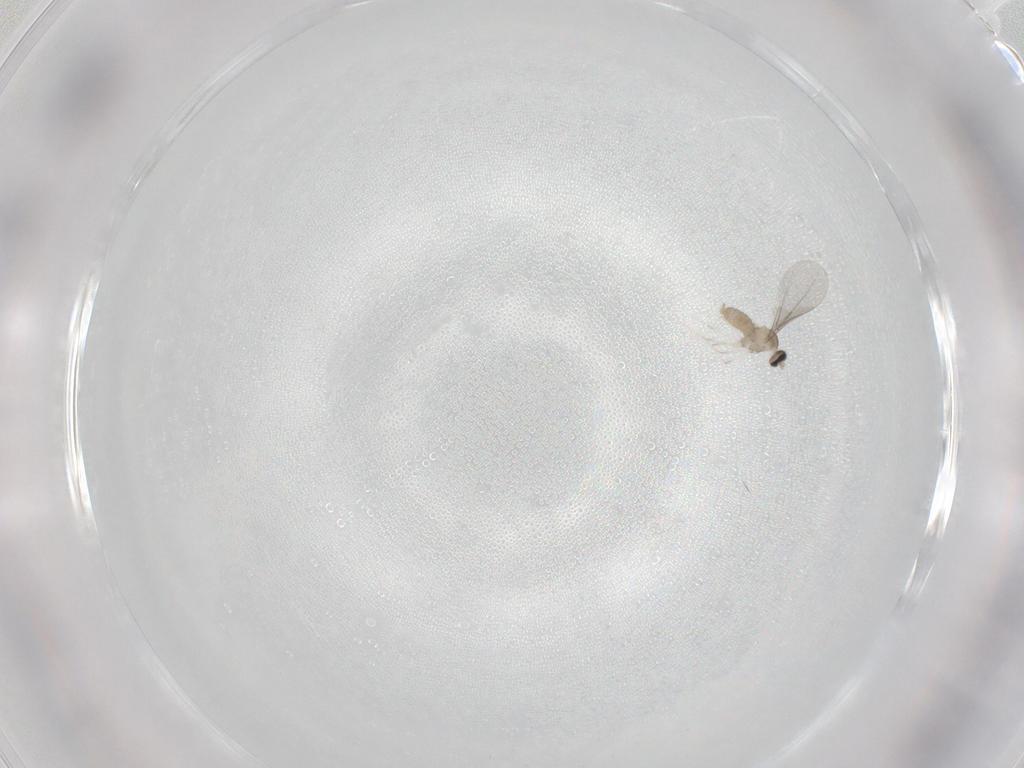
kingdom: Animalia
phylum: Arthropoda
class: Insecta
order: Diptera
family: Cecidomyiidae
